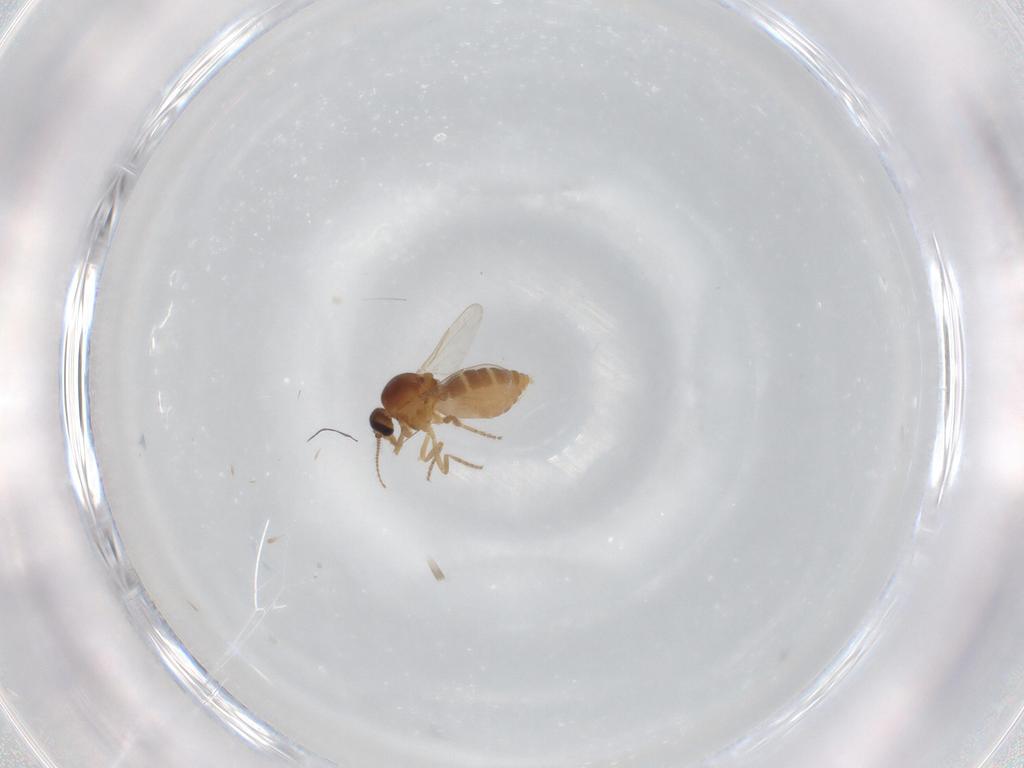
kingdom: Animalia
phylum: Arthropoda
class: Insecta
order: Diptera
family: Ceratopogonidae
